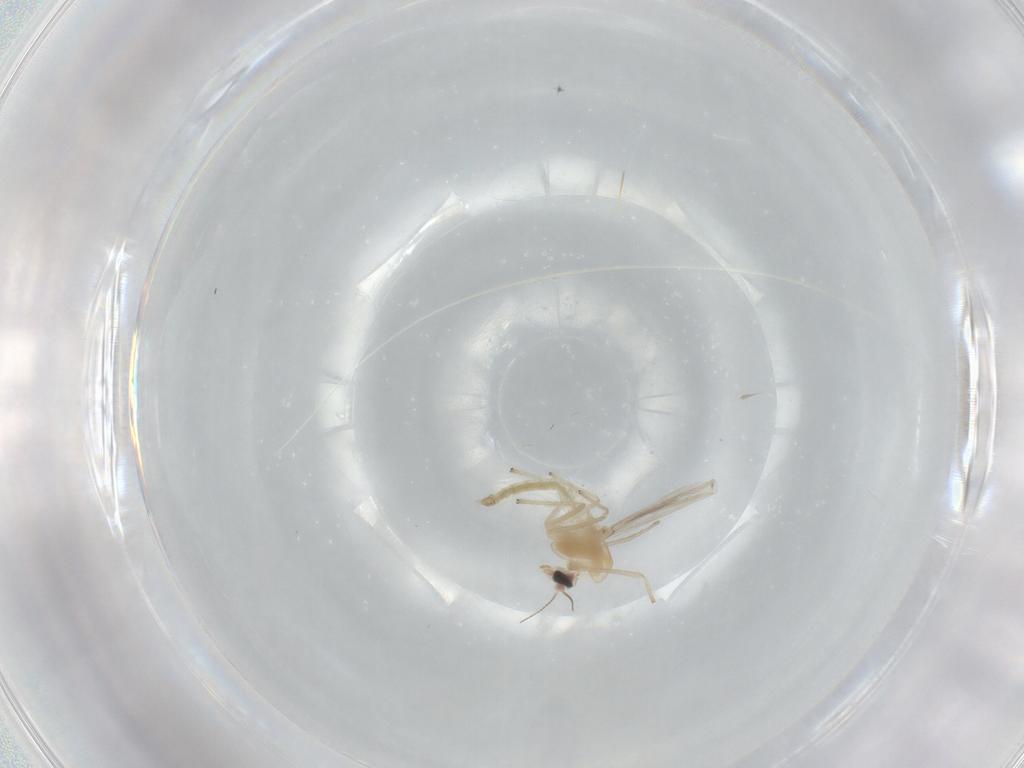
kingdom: Animalia
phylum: Arthropoda
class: Insecta
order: Diptera
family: Chironomidae
